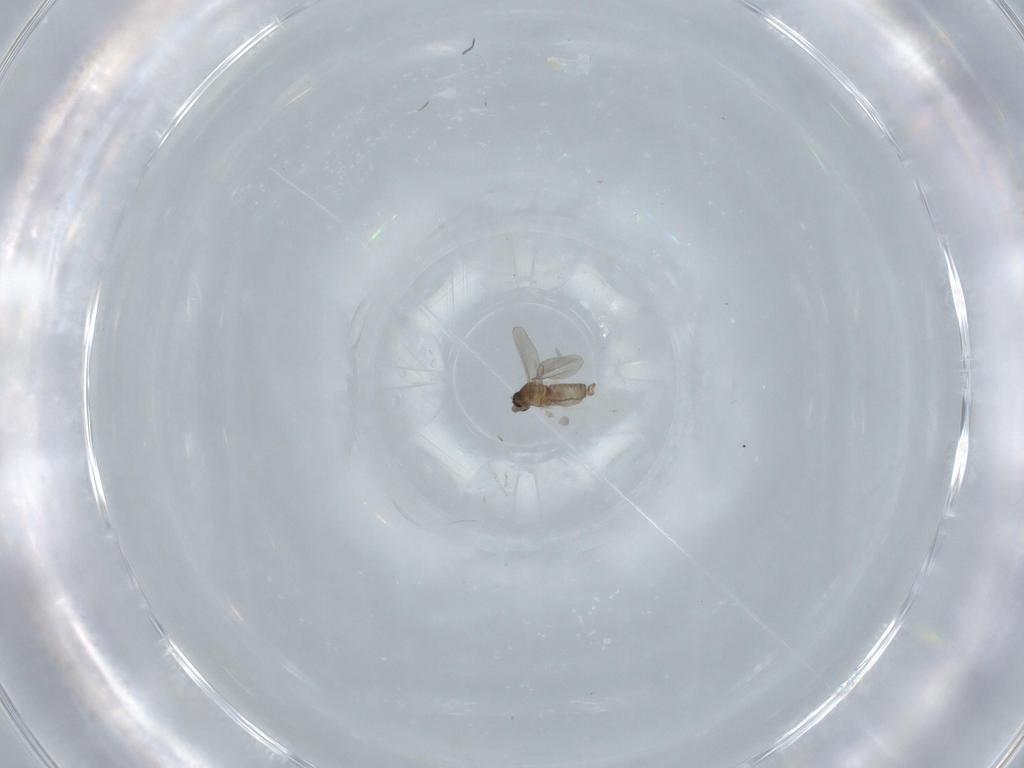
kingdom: Animalia
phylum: Arthropoda
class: Insecta
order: Diptera
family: Cecidomyiidae
